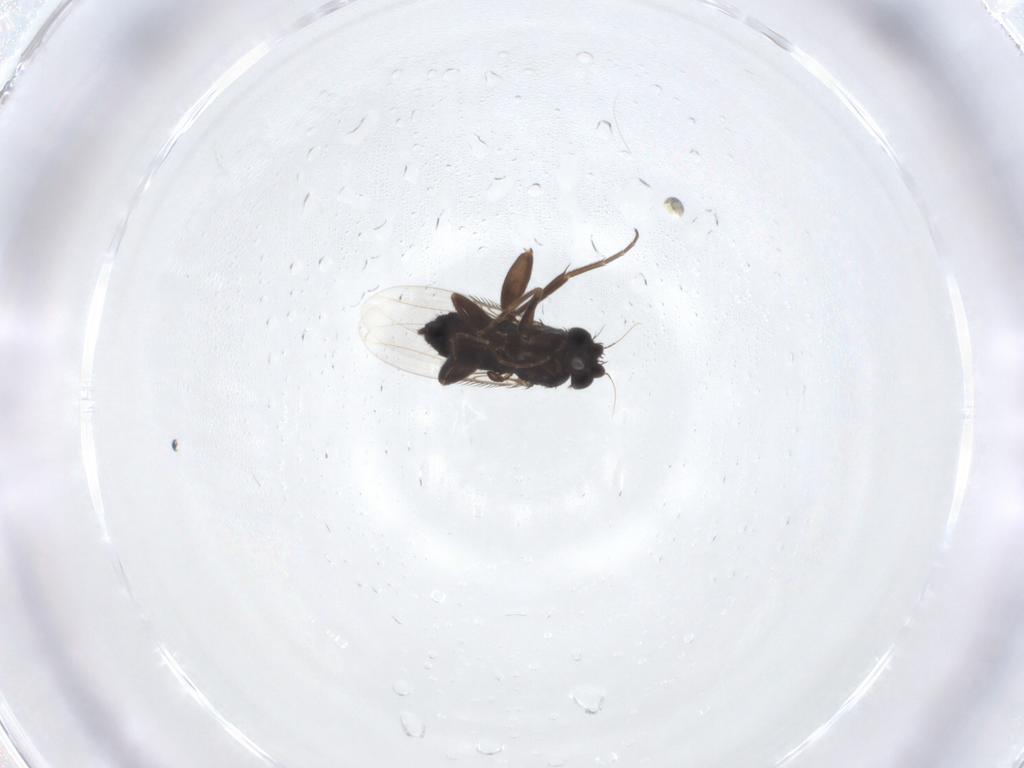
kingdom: Animalia
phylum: Arthropoda
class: Insecta
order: Diptera
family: Phoridae
